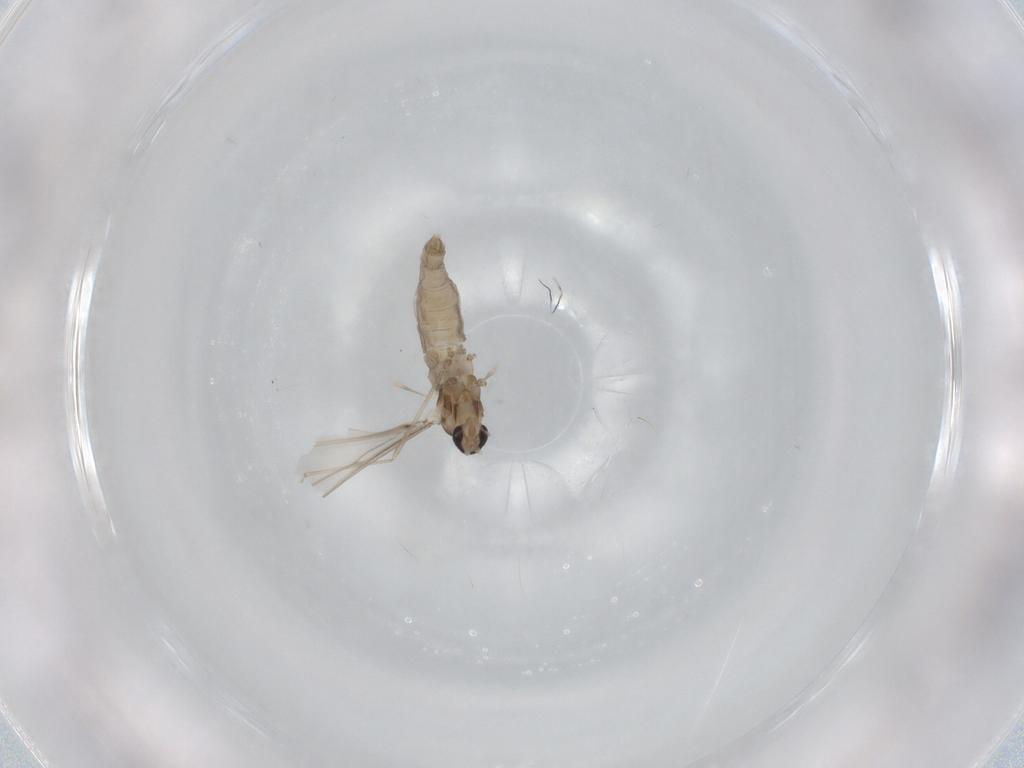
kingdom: Animalia
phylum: Arthropoda
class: Insecta
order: Diptera
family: Cecidomyiidae
